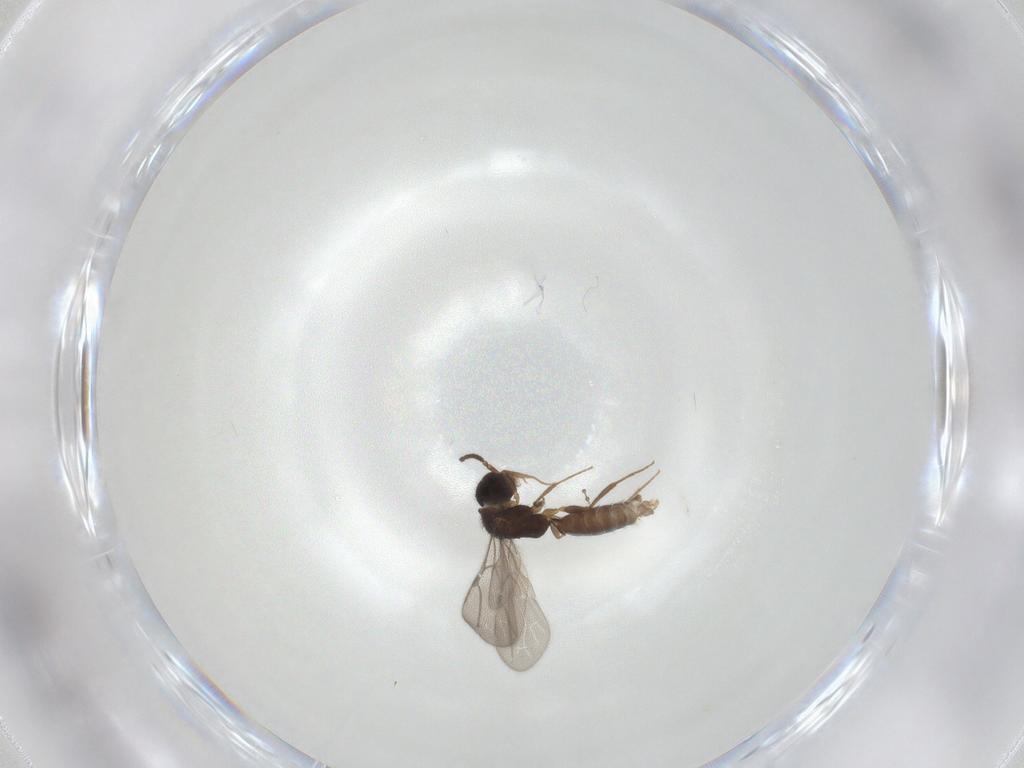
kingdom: Animalia
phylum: Arthropoda
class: Insecta
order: Hymenoptera
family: Bethylidae
